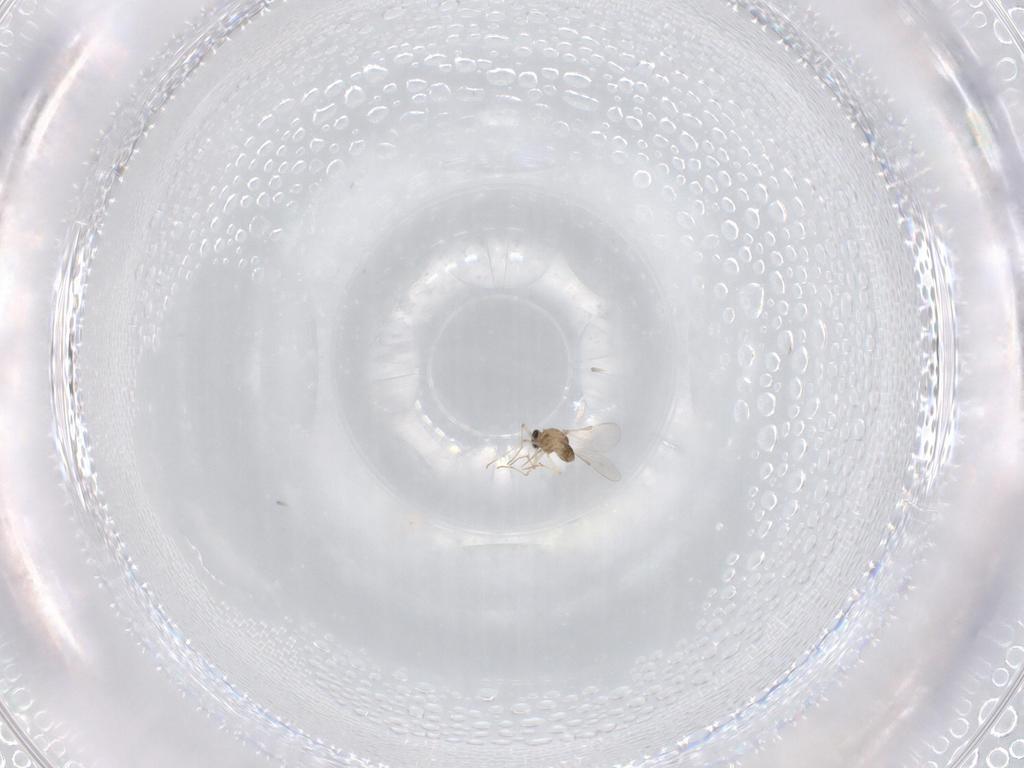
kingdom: Animalia
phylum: Arthropoda
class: Insecta
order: Diptera
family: Chironomidae
